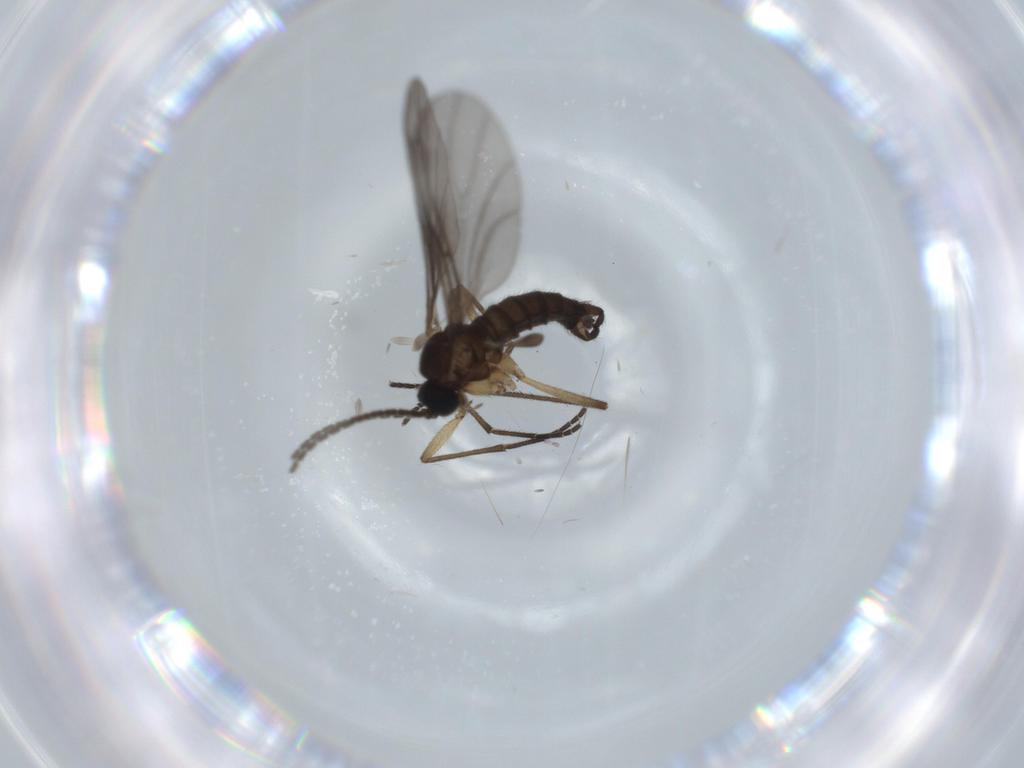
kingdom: Animalia
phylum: Arthropoda
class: Insecta
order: Diptera
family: Sciaridae
